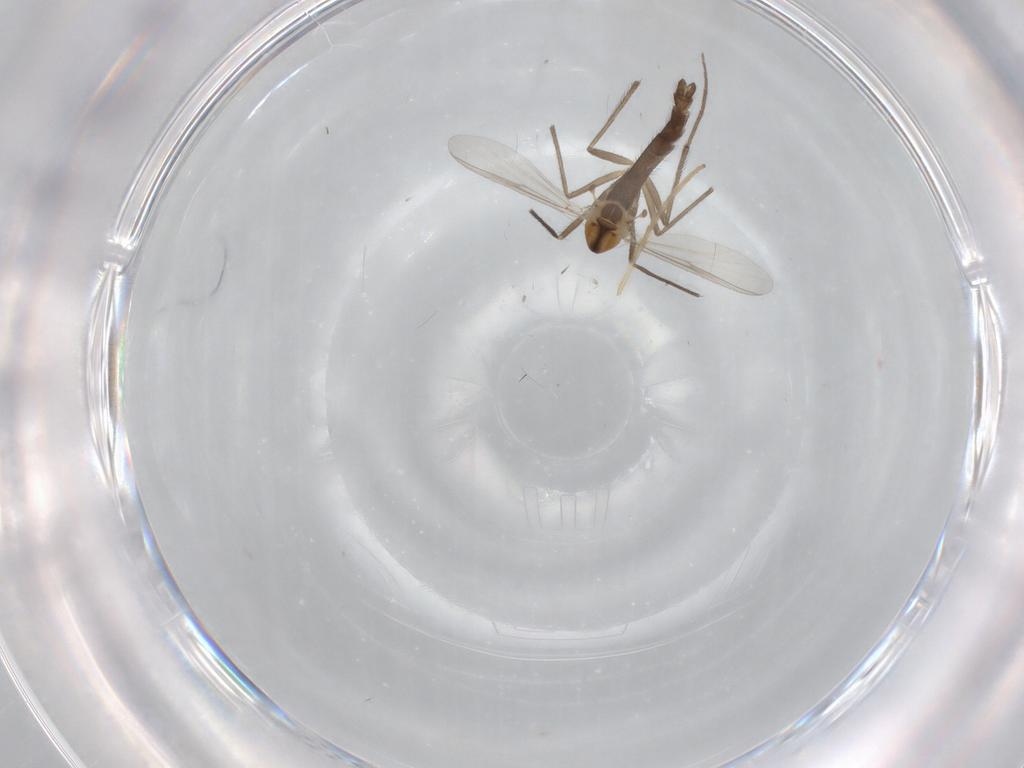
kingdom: Animalia
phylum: Arthropoda
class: Insecta
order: Diptera
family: Chironomidae
